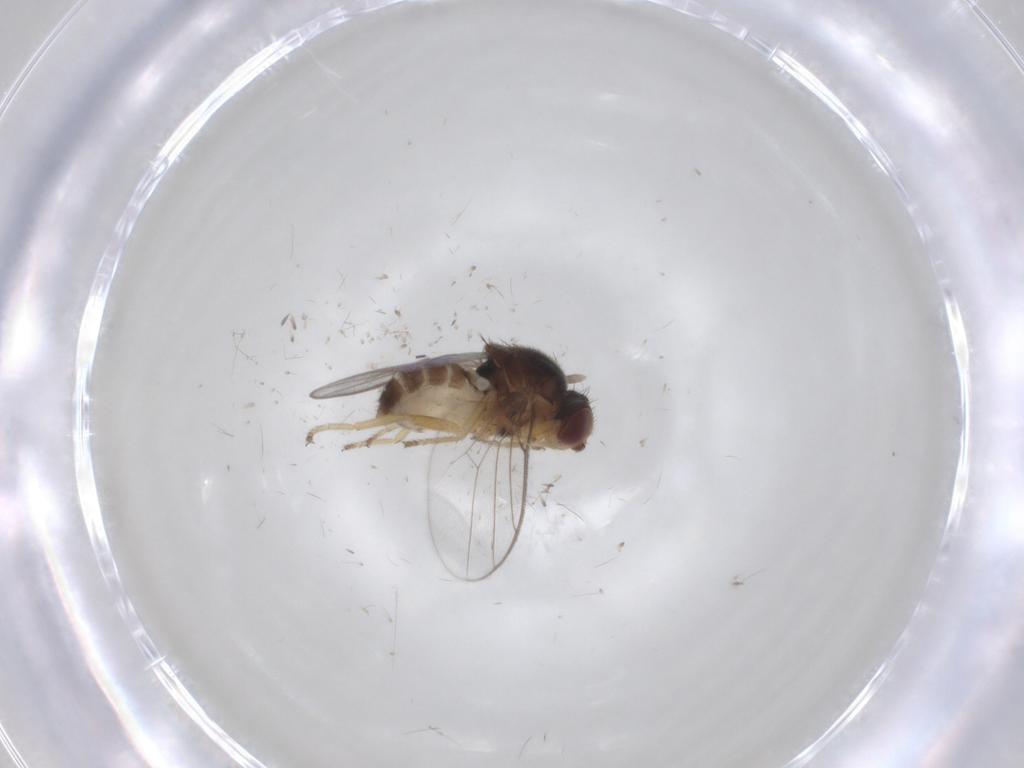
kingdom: Animalia
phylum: Arthropoda
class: Insecta
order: Diptera
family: Chloropidae
